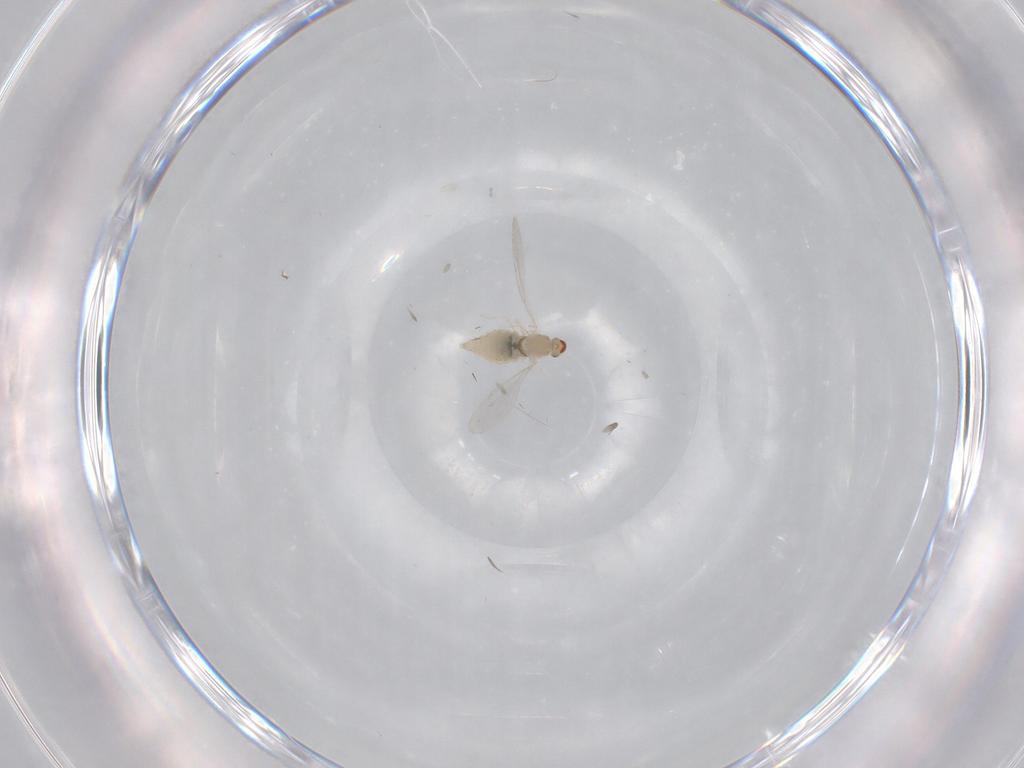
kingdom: Animalia
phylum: Arthropoda
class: Insecta
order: Diptera
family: Cecidomyiidae
